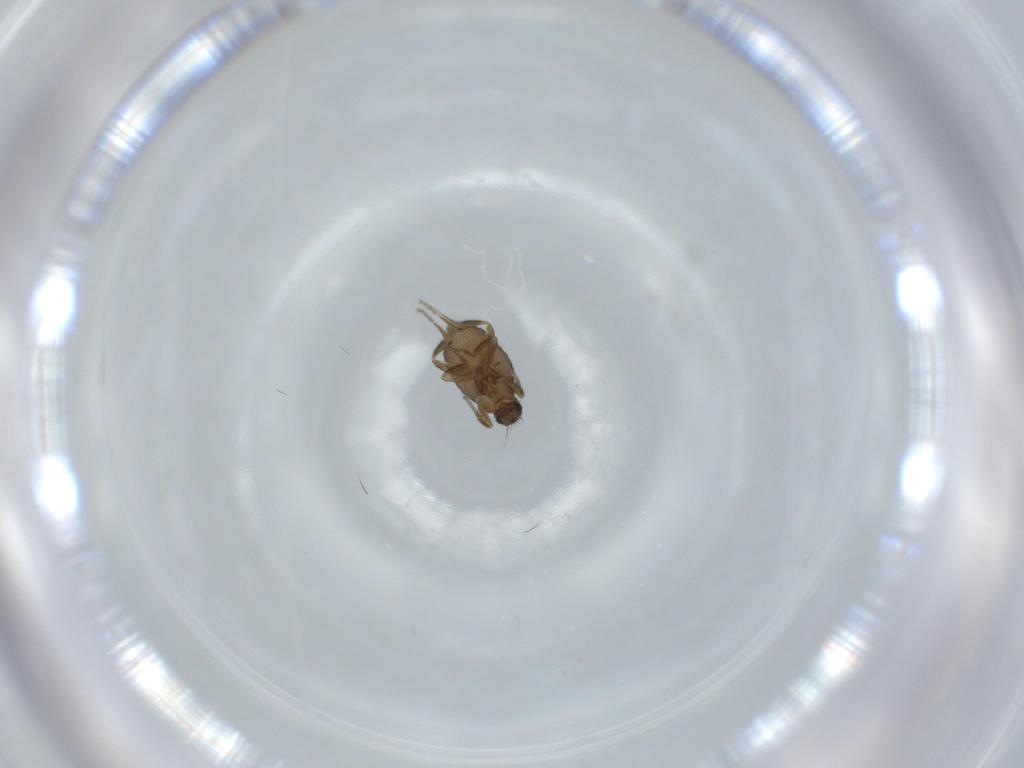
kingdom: Animalia
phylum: Arthropoda
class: Insecta
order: Diptera
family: Phoridae
